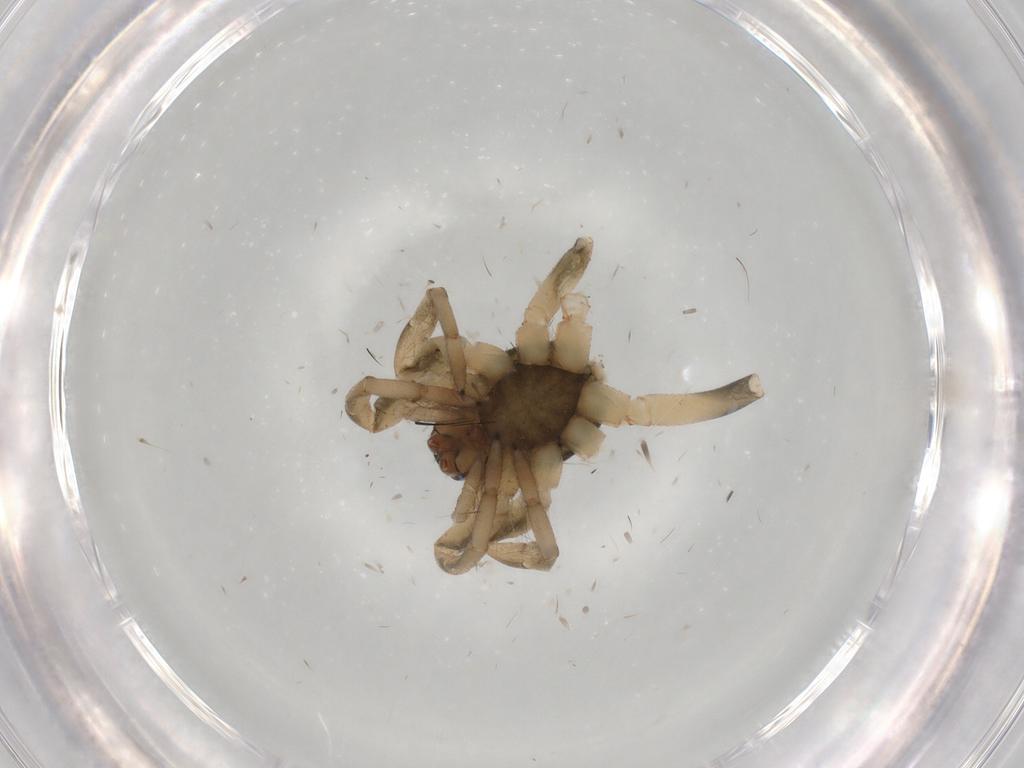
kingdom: Animalia
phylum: Arthropoda
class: Arachnida
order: Araneae
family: Gnaphosidae
